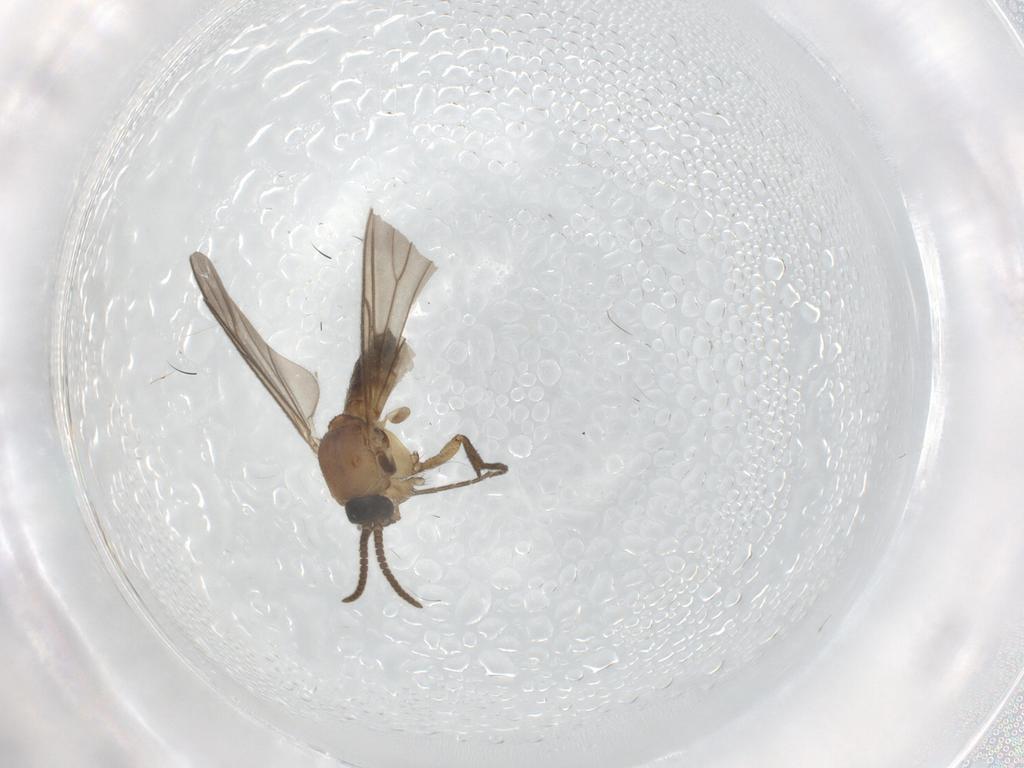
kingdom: Animalia
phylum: Arthropoda
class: Insecta
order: Diptera
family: Mycetophilidae
